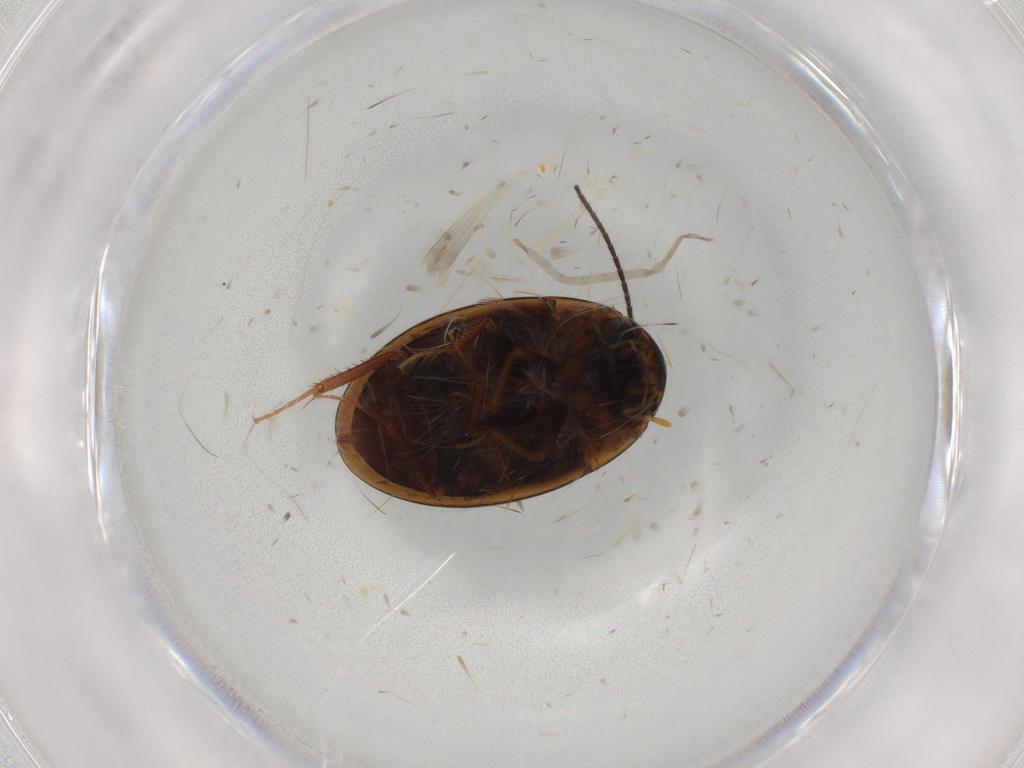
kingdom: Animalia
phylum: Arthropoda
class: Insecta
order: Coleoptera
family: Hydrophilidae
